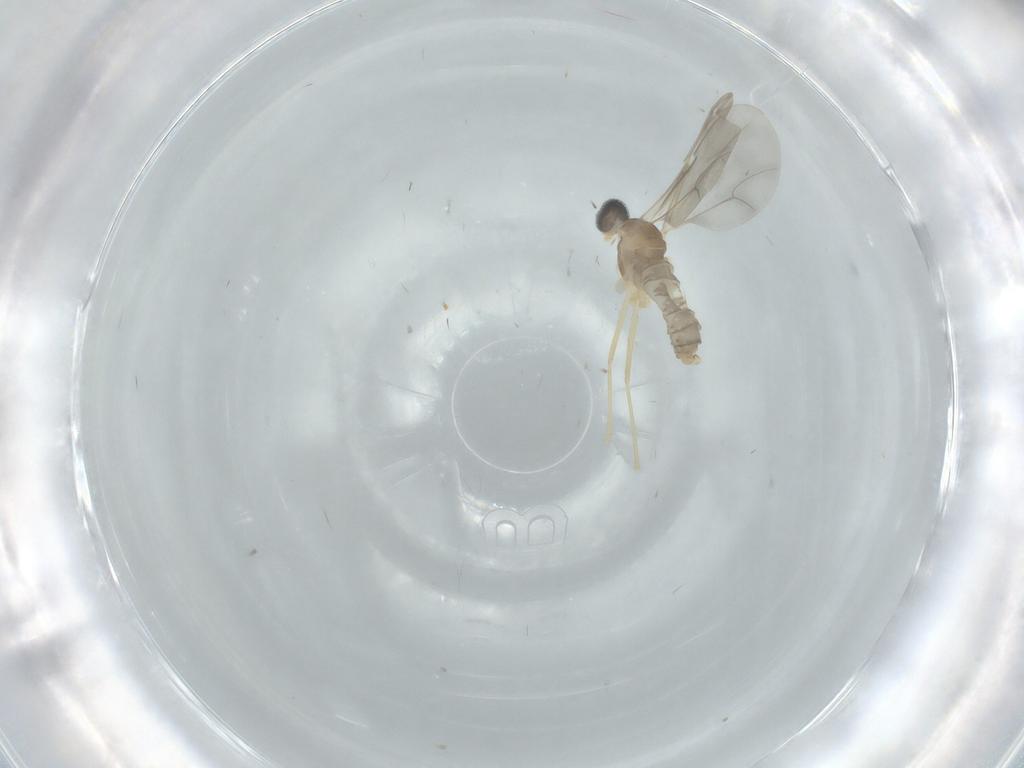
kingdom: Animalia
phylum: Arthropoda
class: Insecta
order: Diptera
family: Cecidomyiidae
